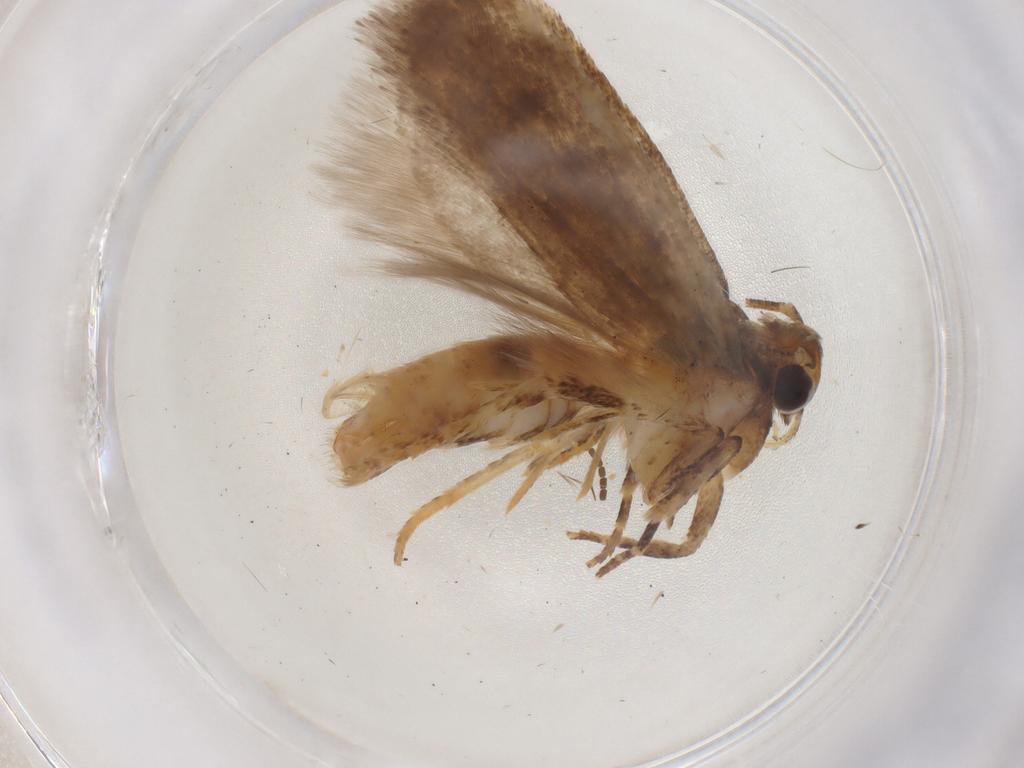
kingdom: Animalia
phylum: Arthropoda
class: Insecta
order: Lepidoptera
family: Gelechiidae
